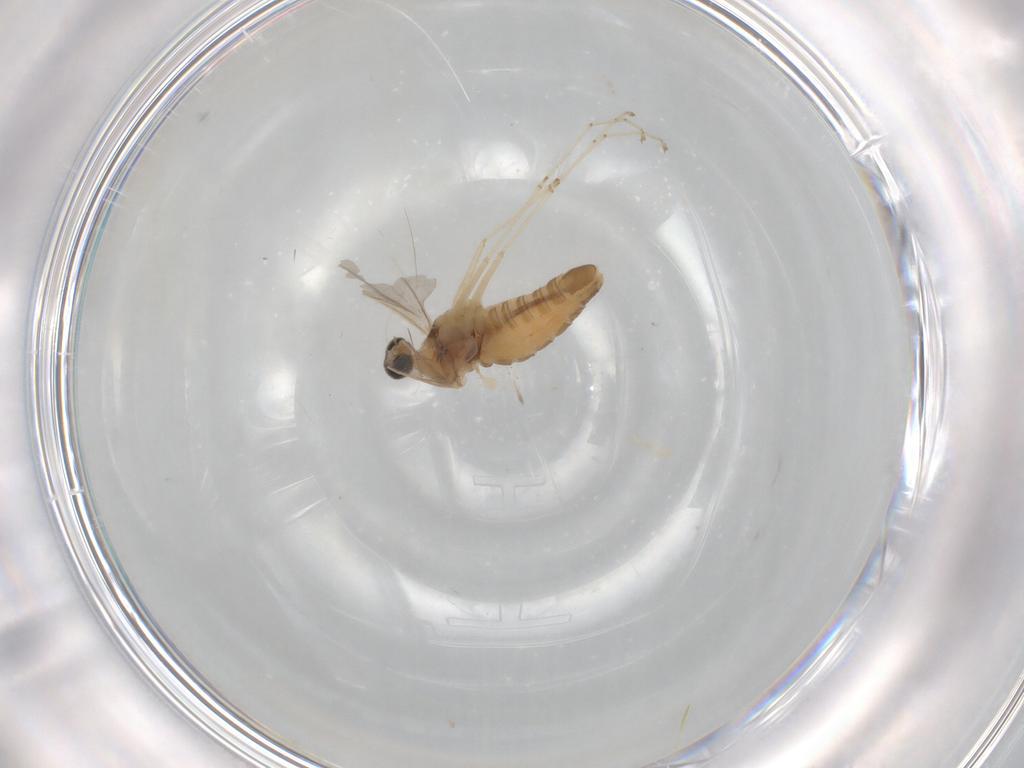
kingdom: Animalia
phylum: Arthropoda
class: Insecta
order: Diptera
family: Cecidomyiidae
